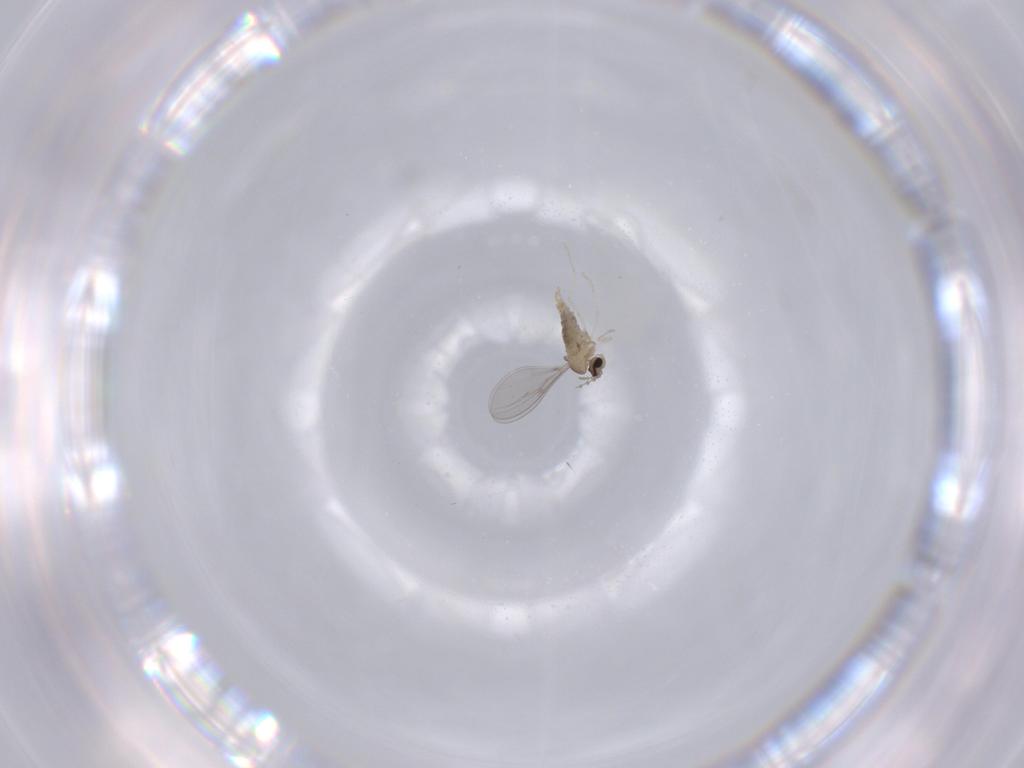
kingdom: Animalia
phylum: Arthropoda
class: Insecta
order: Diptera
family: Cecidomyiidae
